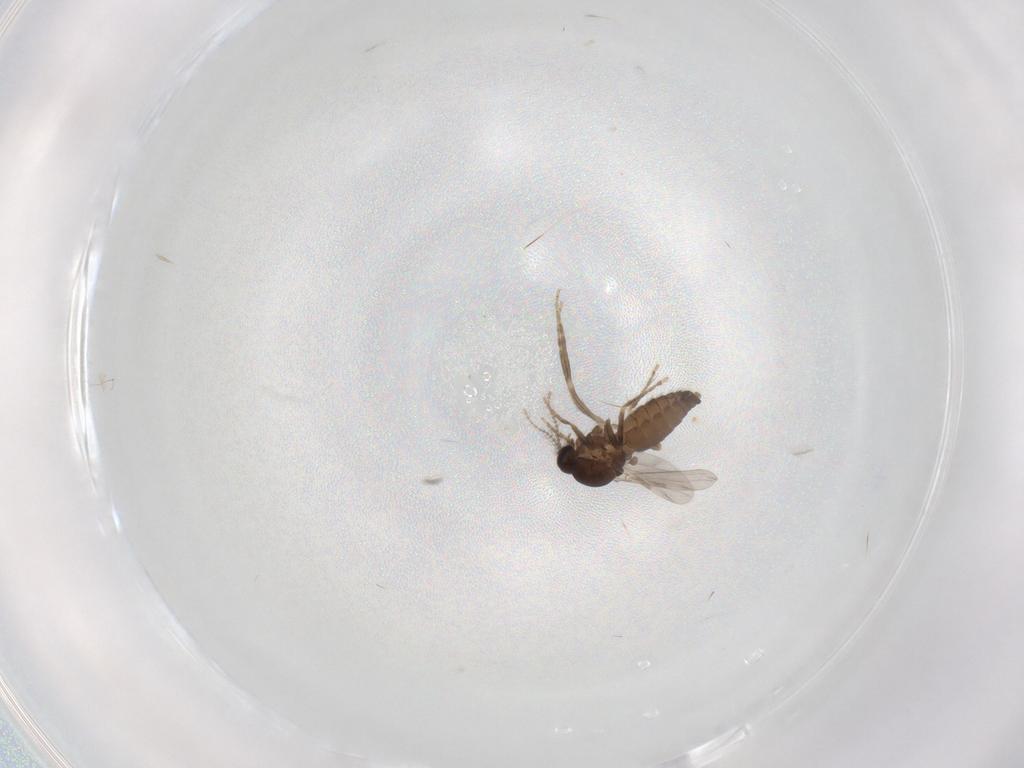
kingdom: Animalia
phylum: Arthropoda
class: Insecta
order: Diptera
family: Ceratopogonidae
